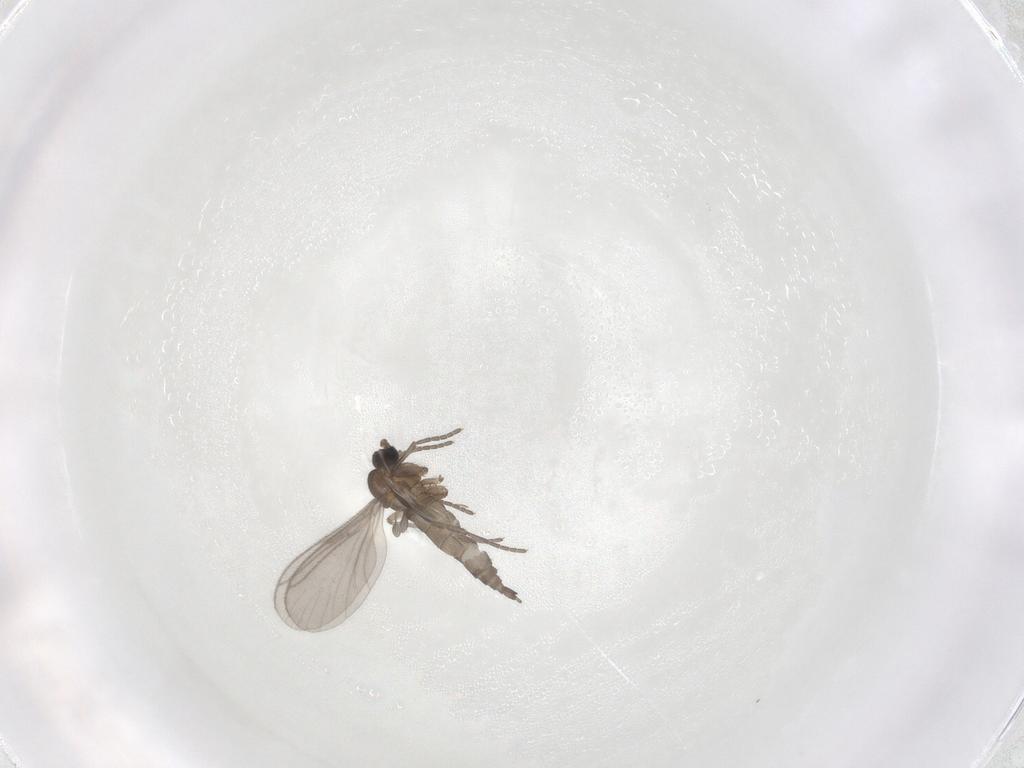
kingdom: Animalia
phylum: Arthropoda
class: Insecta
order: Diptera
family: Sciaridae
